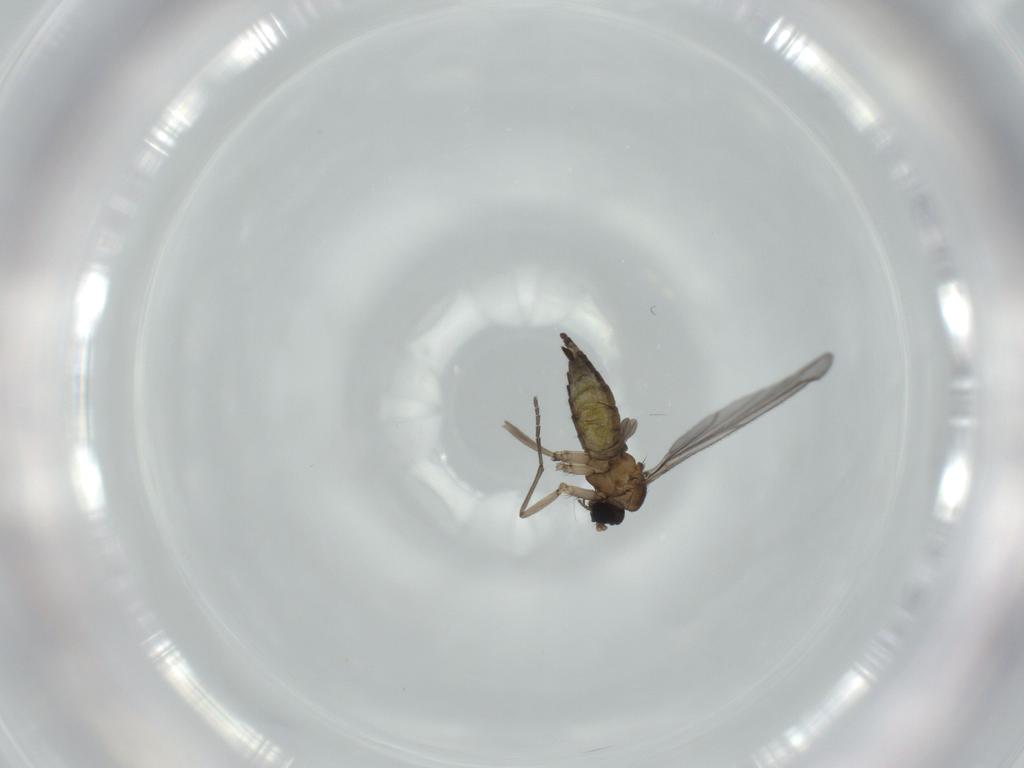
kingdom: Animalia
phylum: Arthropoda
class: Insecta
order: Diptera
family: Sciaridae
